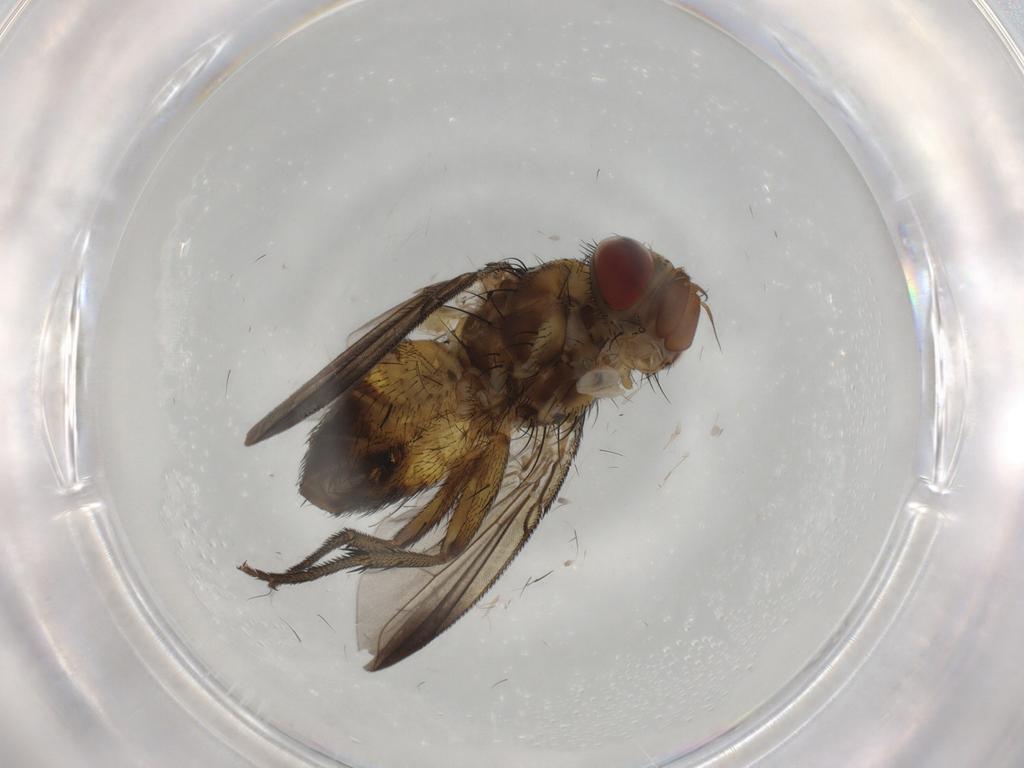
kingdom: Animalia
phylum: Arthropoda
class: Insecta
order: Diptera
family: Tachinidae
